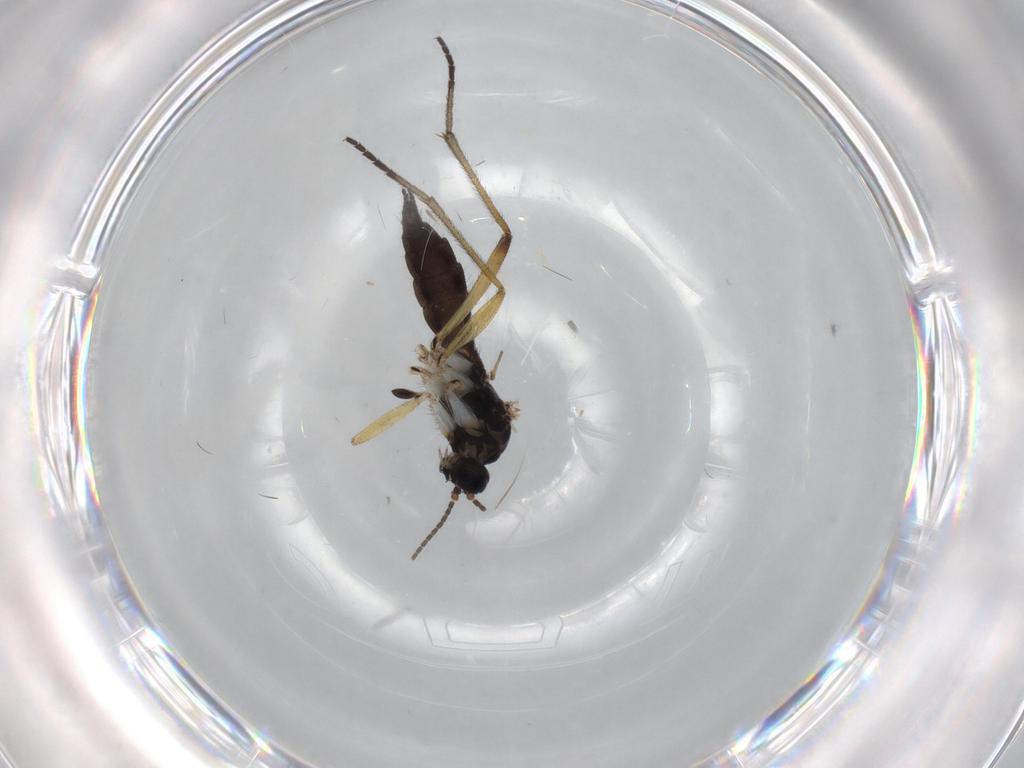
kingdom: Animalia
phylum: Arthropoda
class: Insecta
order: Diptera
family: Sciaridae
